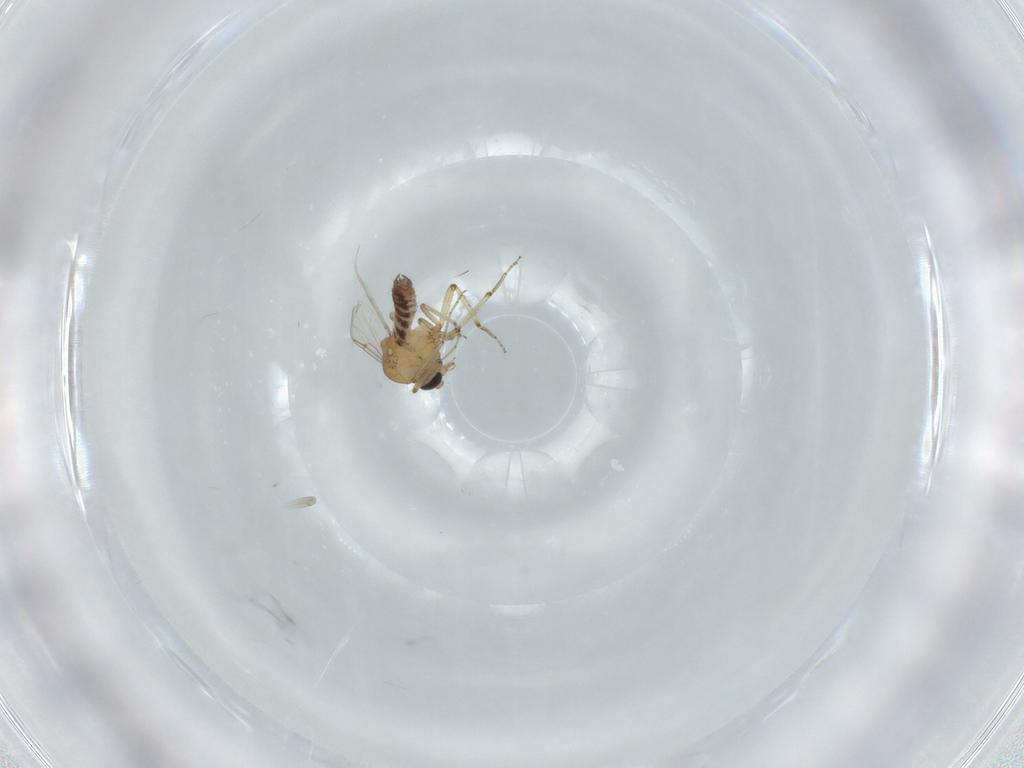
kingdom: Animalia
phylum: Arthropoda
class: Insecta
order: Diptera
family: Ceratopogonidae
